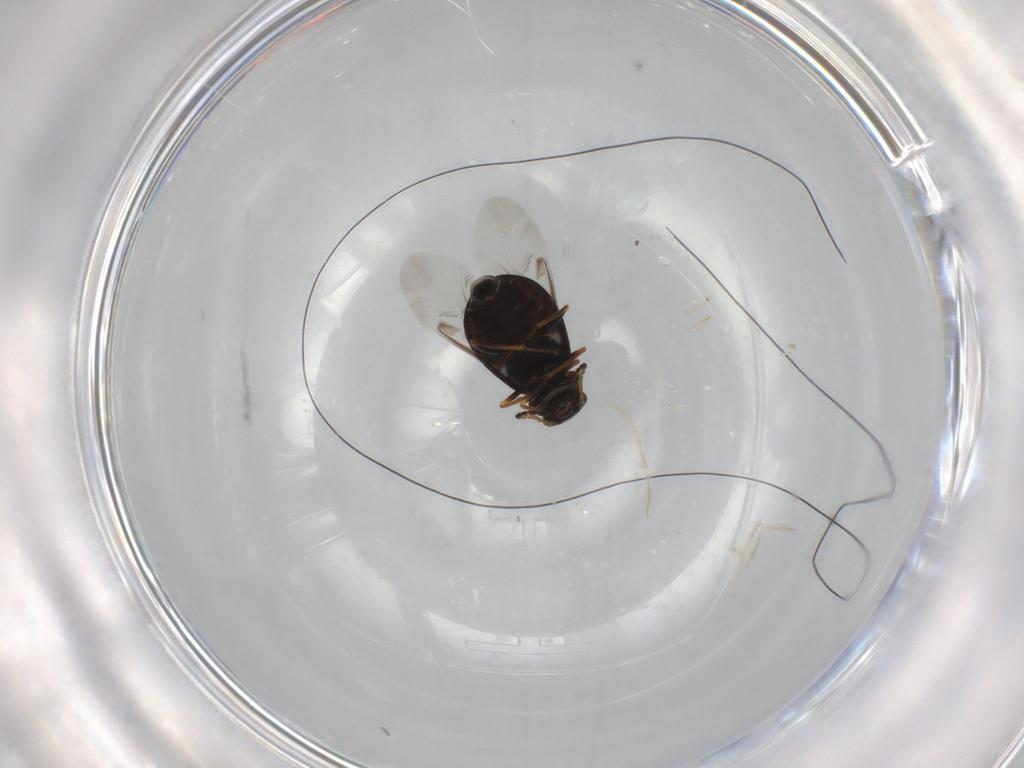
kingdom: Animalia
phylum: Arthropoda
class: Insecta
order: Coleoptera
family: Melyridae
